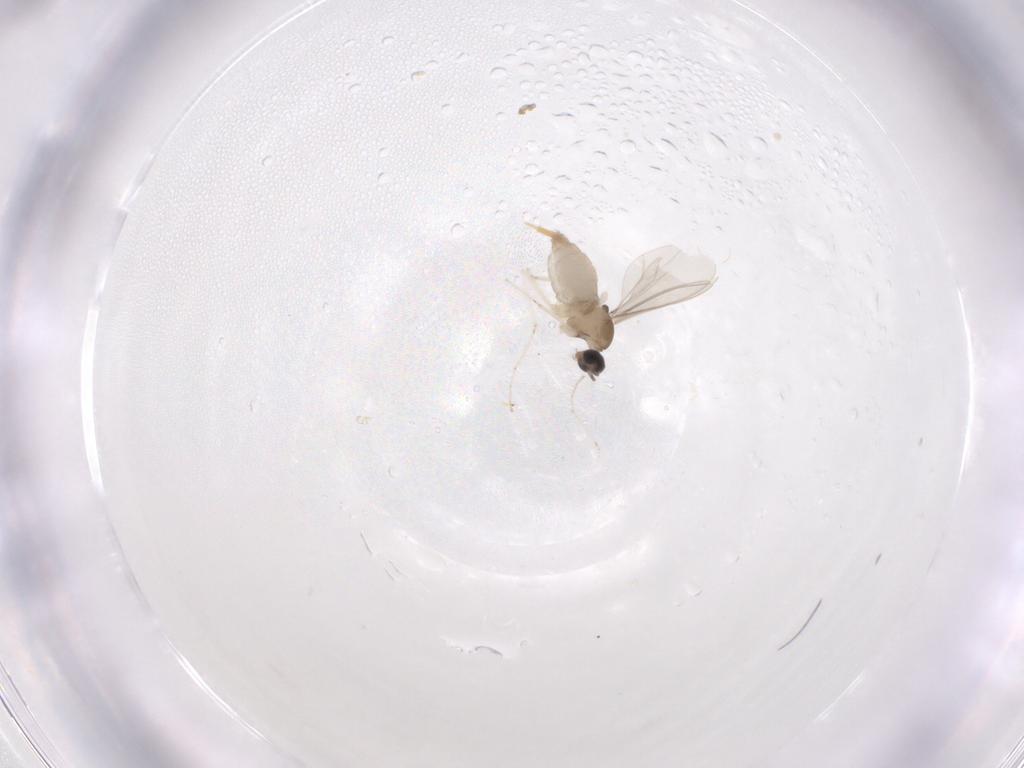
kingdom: Animalia
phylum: Arthropoda
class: Insecta
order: Diptera
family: Cecidomyiidae
